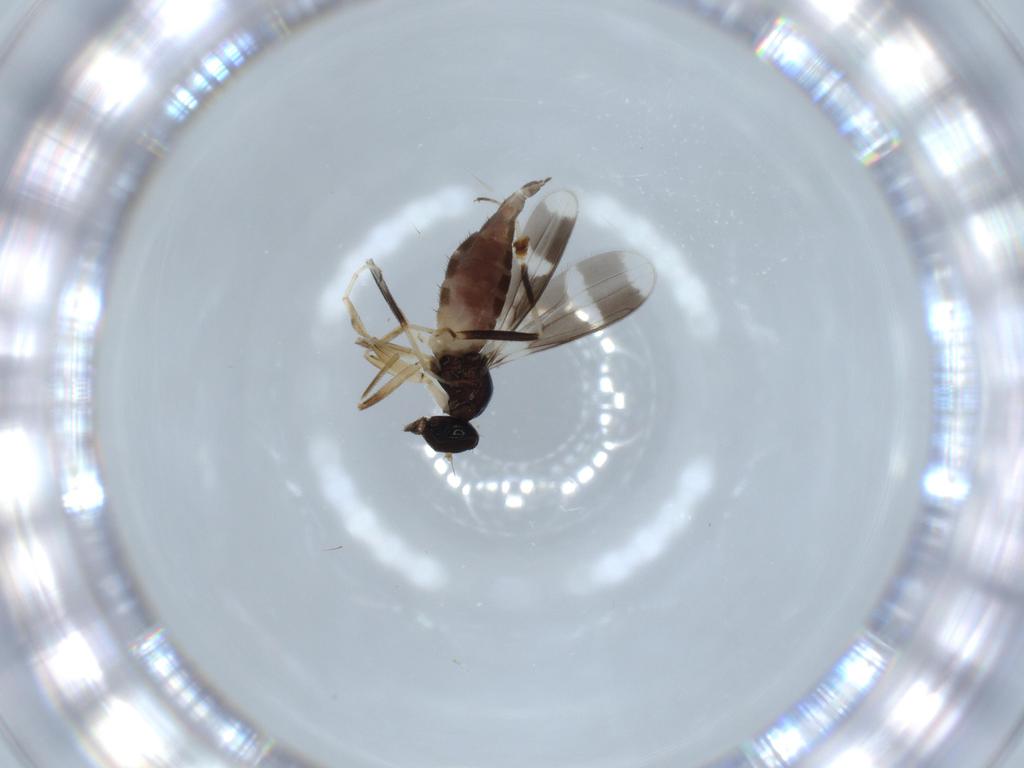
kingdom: Animalia
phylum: Arthropoda
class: Insecta
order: Diptera
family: Hybotidae
